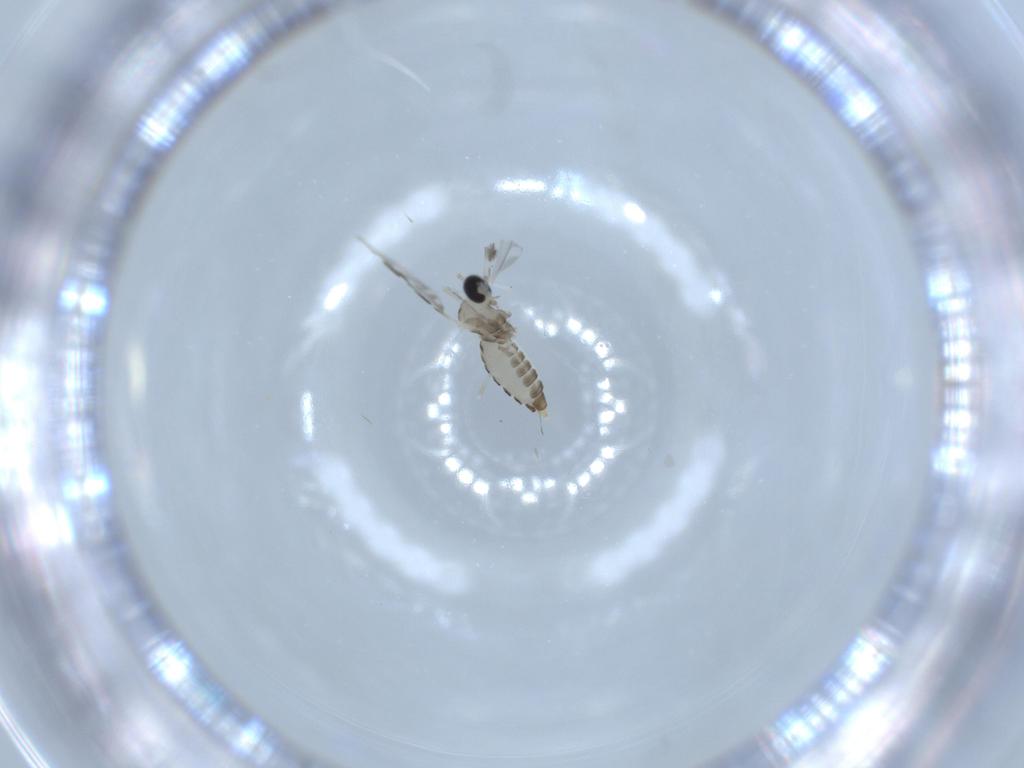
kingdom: Animalia
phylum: Arthropoda
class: Insecta
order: Diptera
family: Cecidomyiidae
